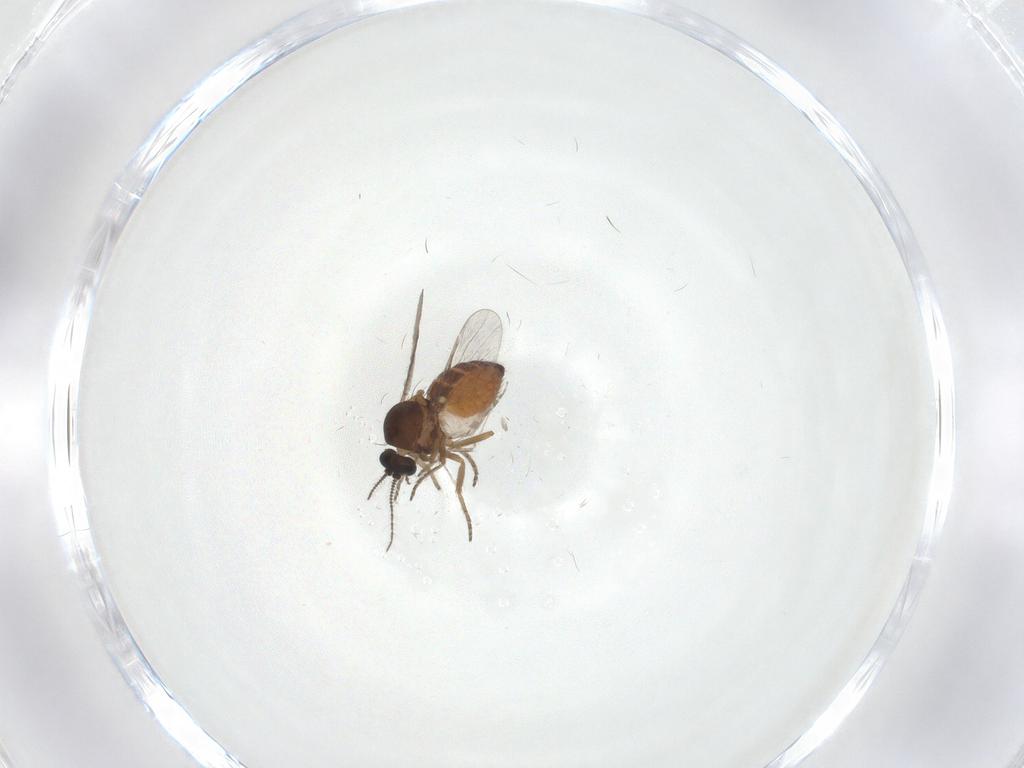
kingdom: Animalia
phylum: Arthropoda
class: Insecta
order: Diptera
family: Ceratopogonidae
